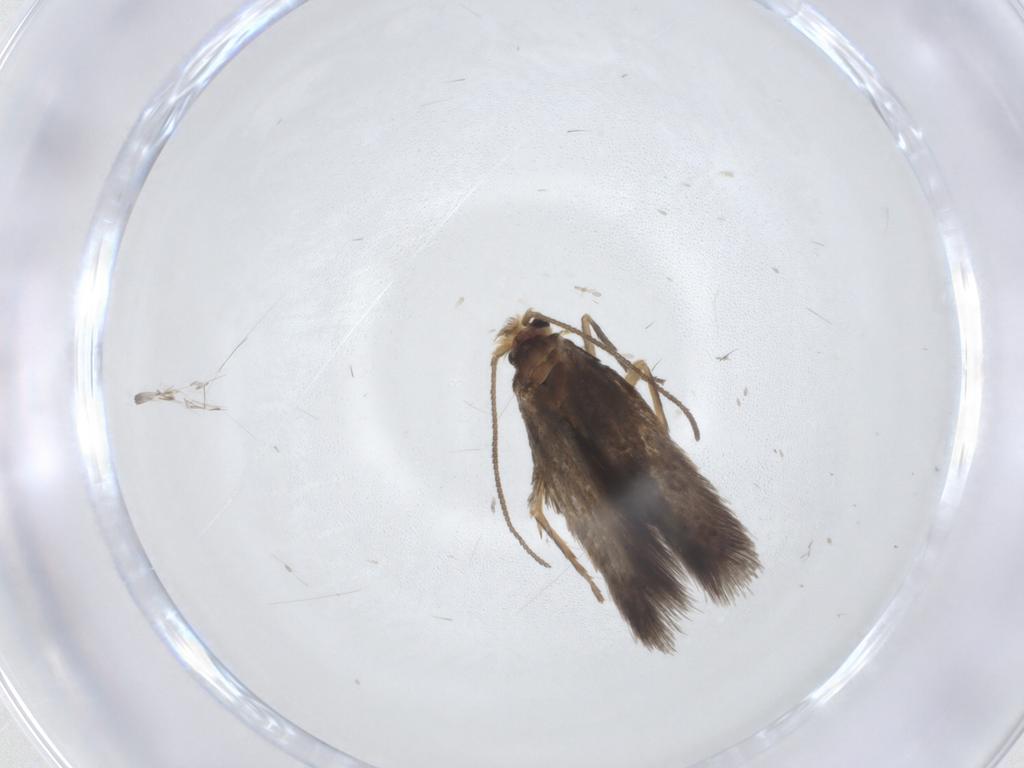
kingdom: Animalia
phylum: Arthropoda
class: Insecta
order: Lepidoptera
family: Nepticulidae
